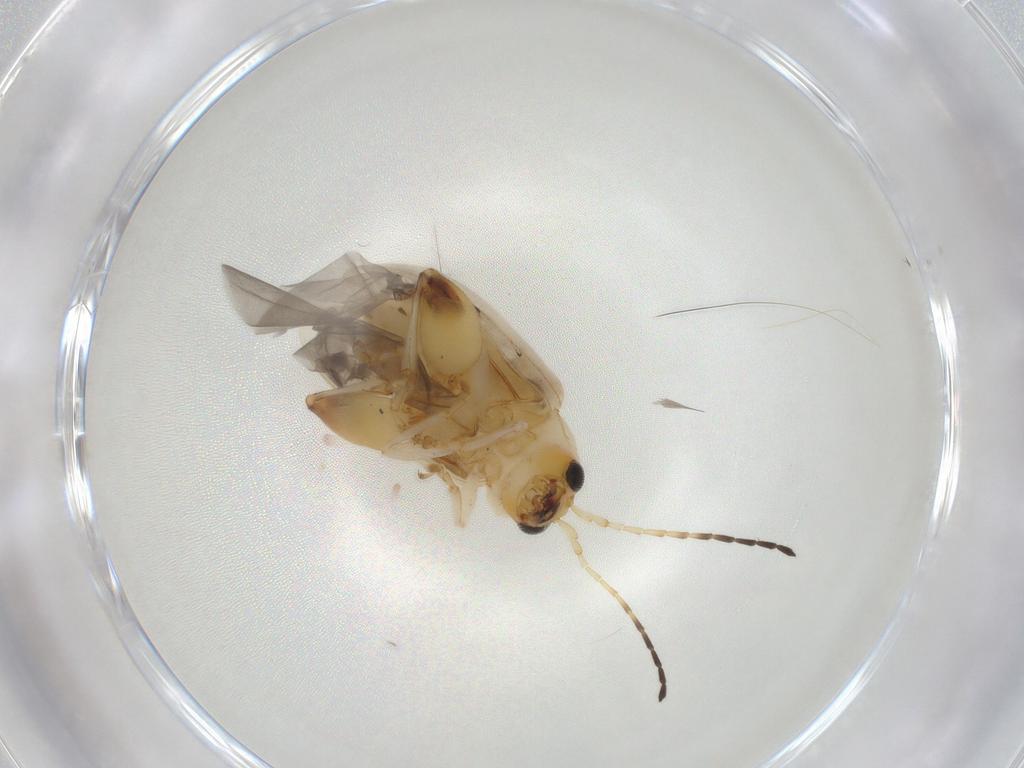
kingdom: Animalia
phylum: Arthropoda
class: Insecta
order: Coleoptera
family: Chrysomelidae
